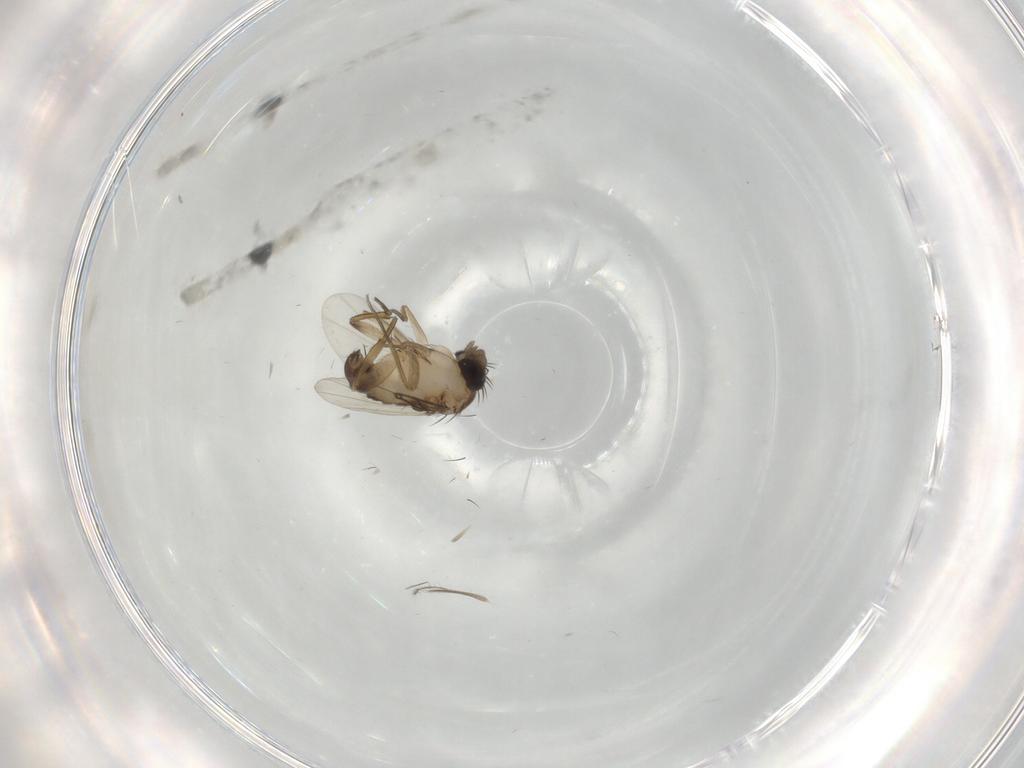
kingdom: Animalia
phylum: Arthropoda
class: Insecta
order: Diptera
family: Phoridae
